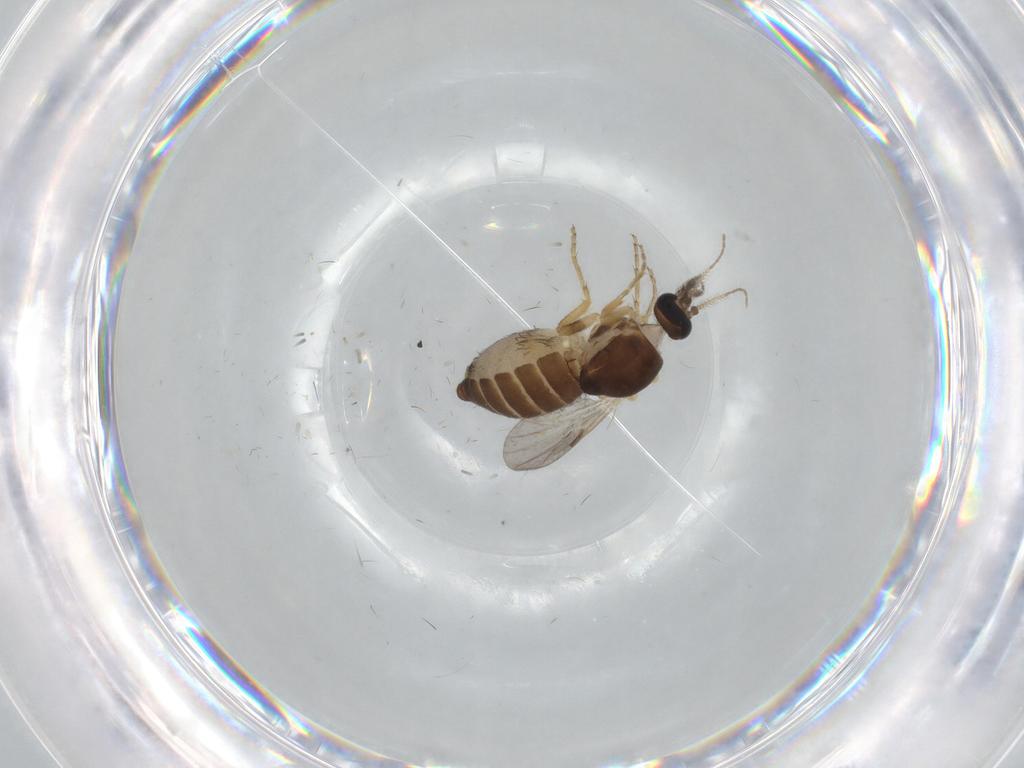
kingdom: Animalia
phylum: Arthropoda
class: Insecta
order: Diptera
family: Ceratopogonidae
